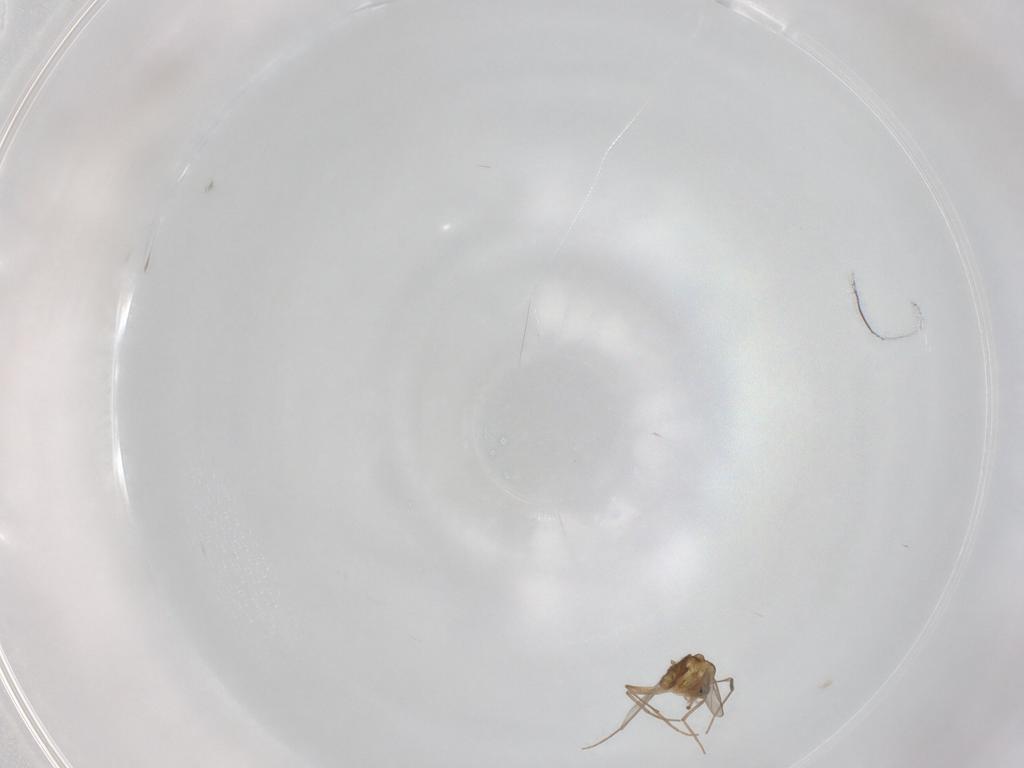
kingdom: Animalia
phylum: Arthropoda
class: Insecta
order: Diptera
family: Chironomidae
